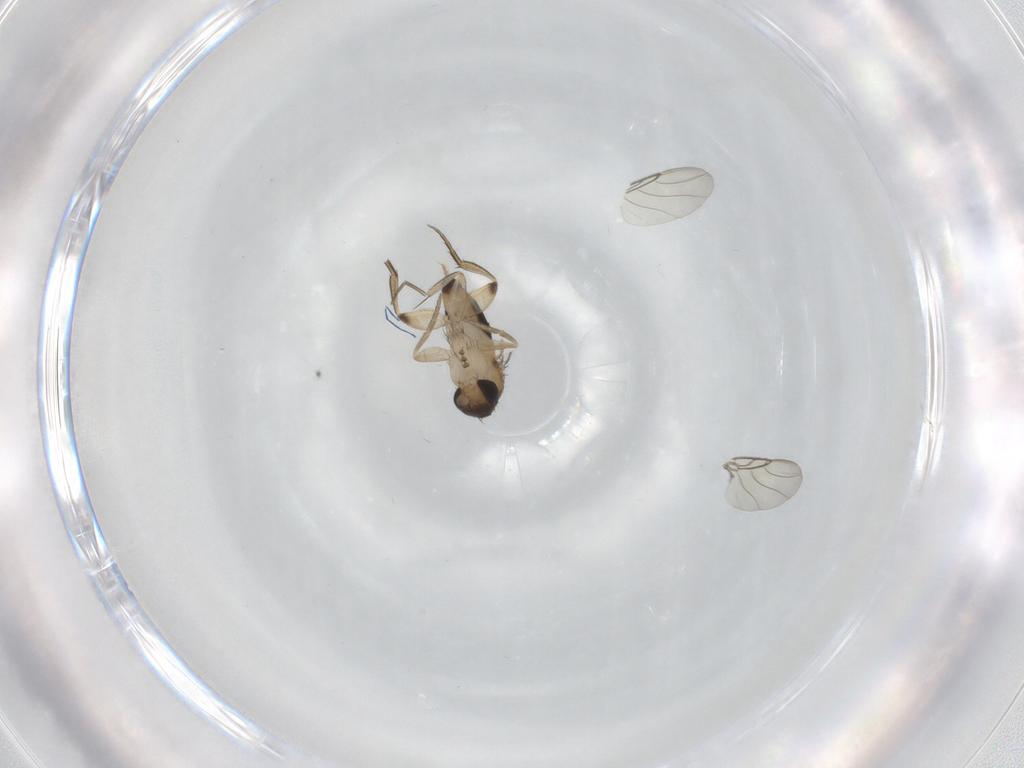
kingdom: Animalia
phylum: Arthropoda
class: Insecta
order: Diptera
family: Phoridae
